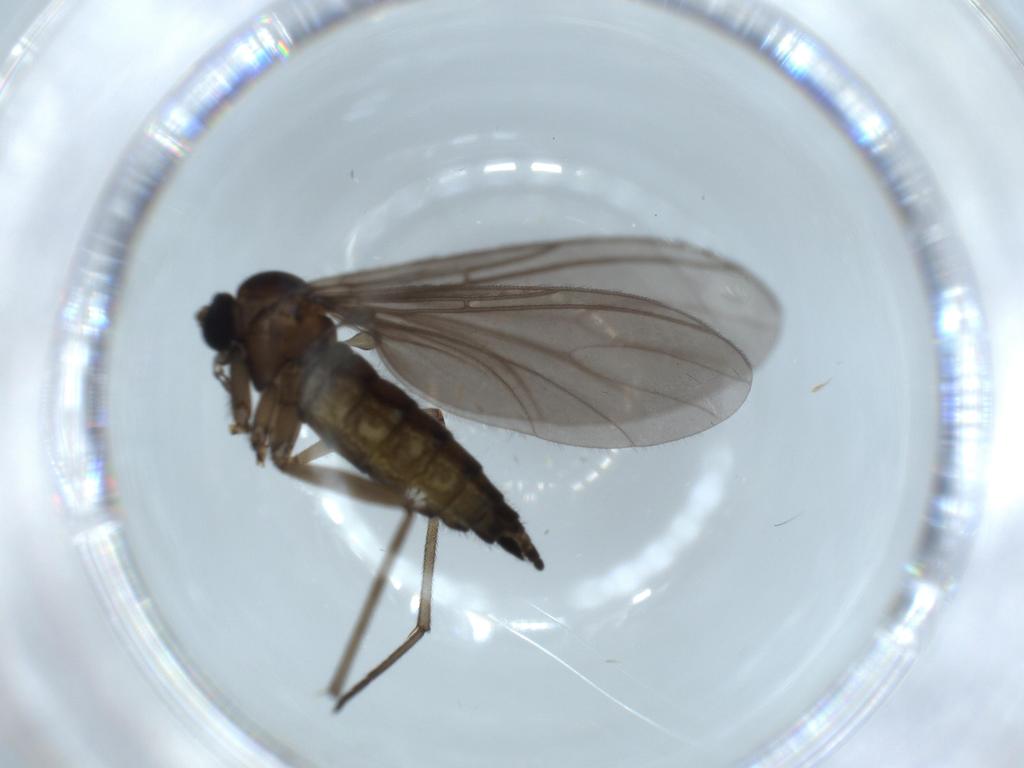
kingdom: Animalia
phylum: Arthropoda
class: Insecta
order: Diptera
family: Sciaridae
